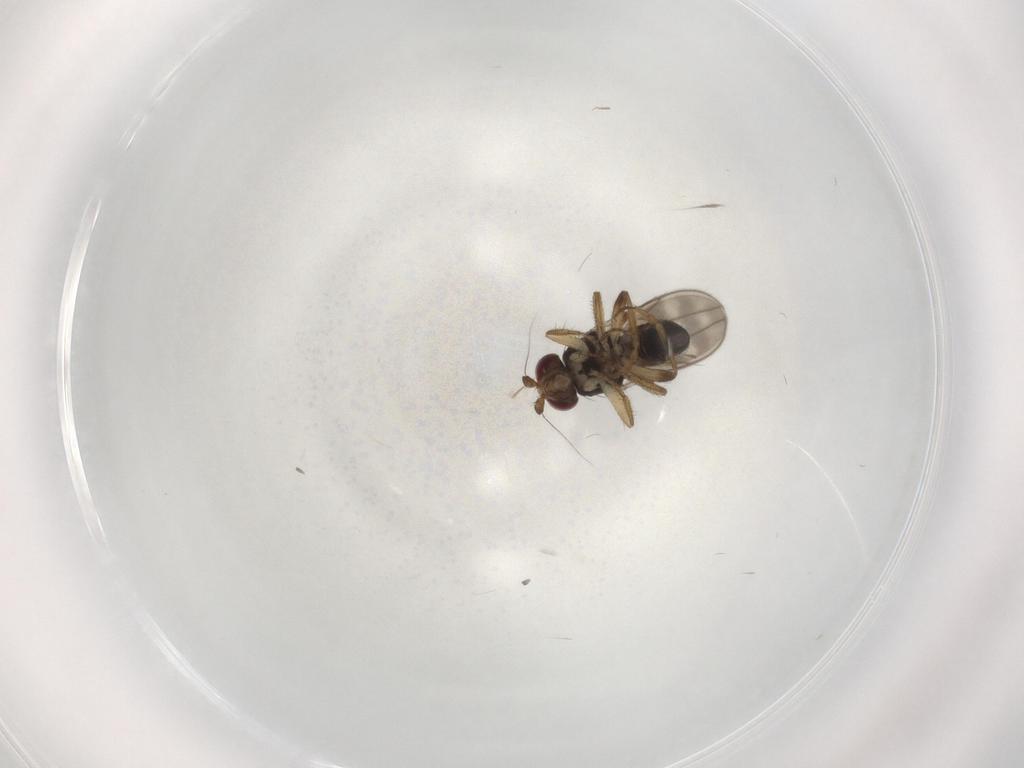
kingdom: Animalia
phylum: Arthropoda
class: Insecta
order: Diptera
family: Sphaeroceridae
